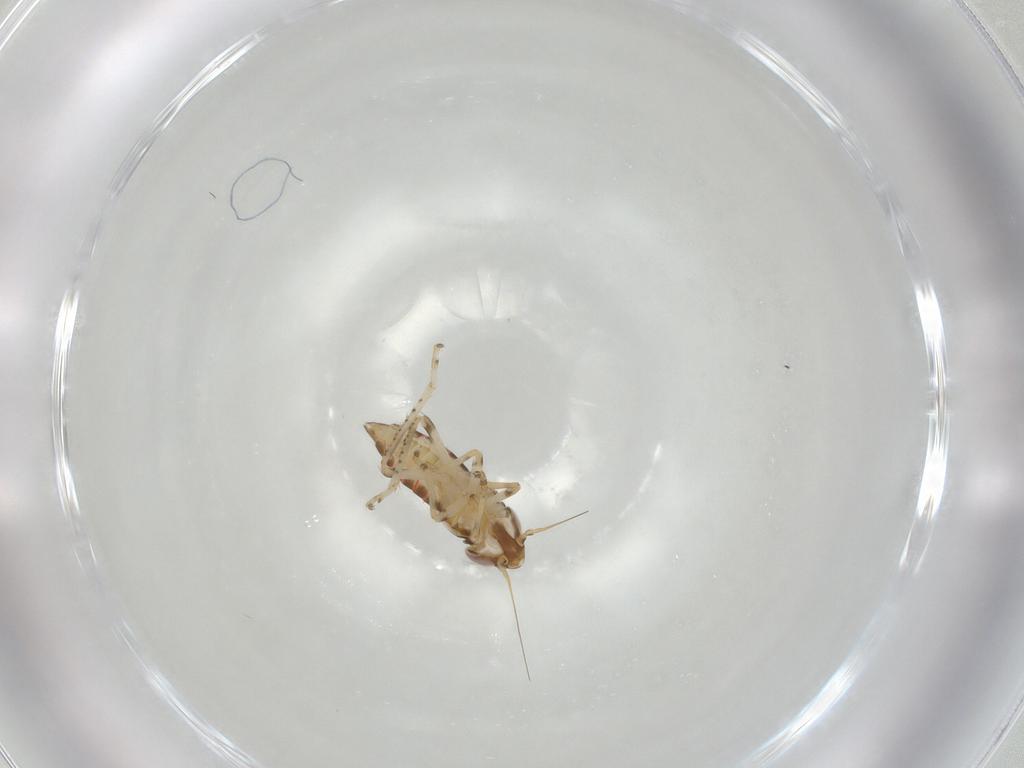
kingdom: Animalia
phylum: Arthropoda
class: Insecta
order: Hemiptera
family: Cicadellidae
